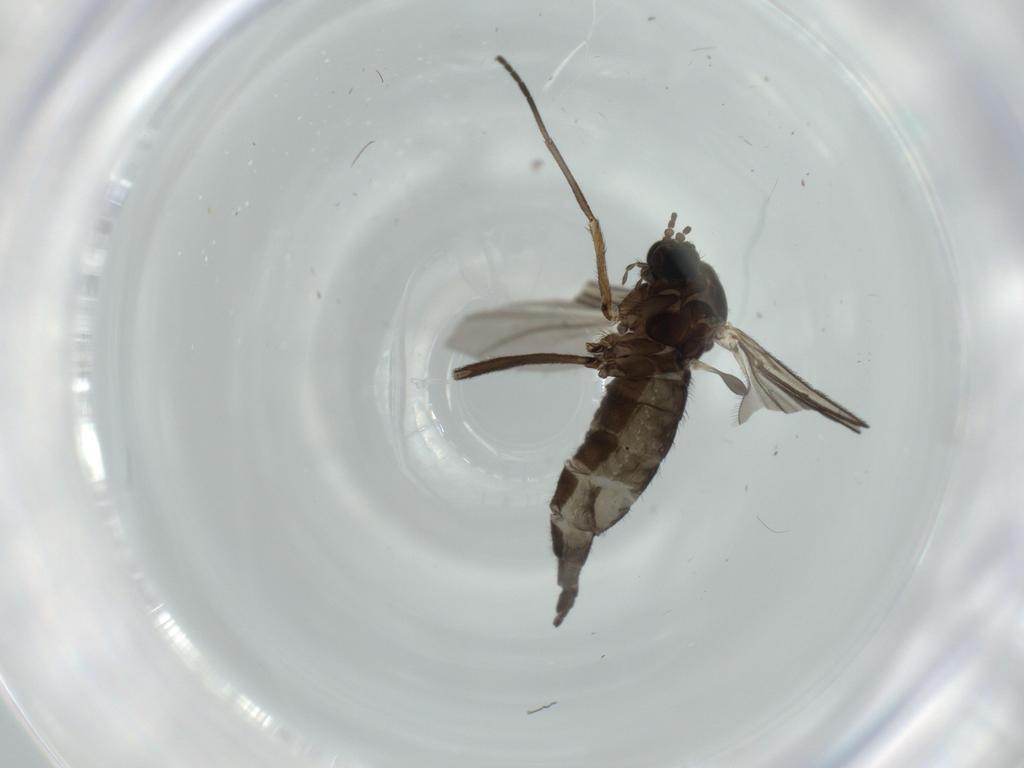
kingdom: Animalia
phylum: Arthropoda
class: Insecta
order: Diptera
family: Sciaridae
